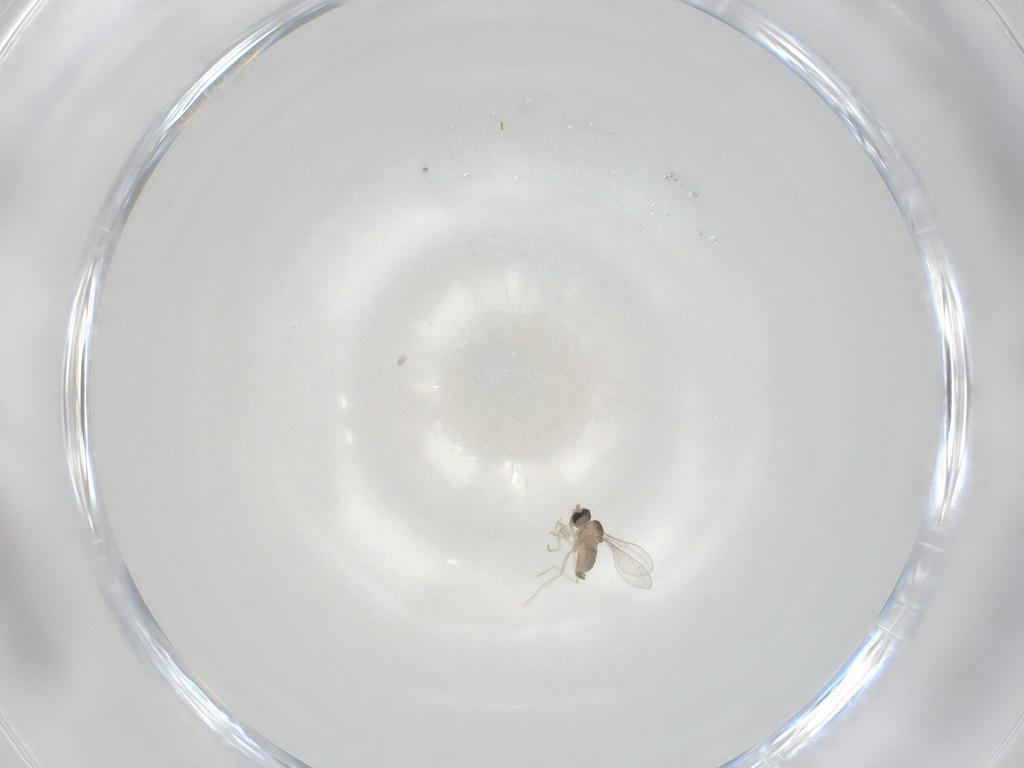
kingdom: Animalia
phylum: Arthropoda
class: Insecta
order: Diptera
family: Cecidomyiidae
